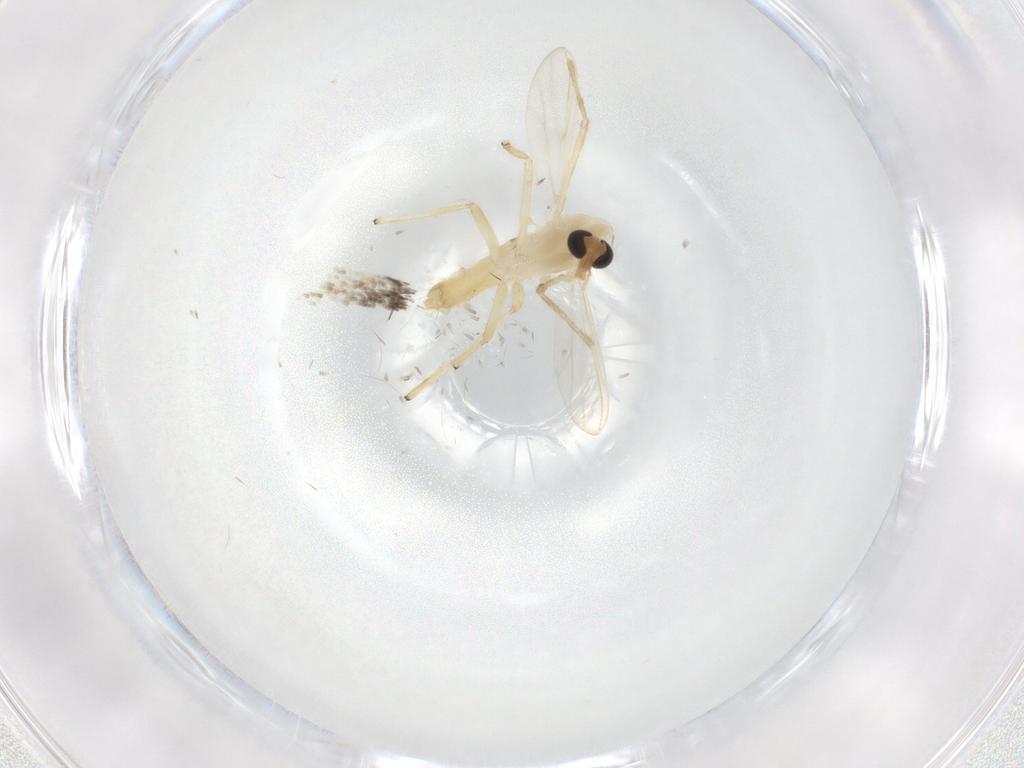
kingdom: Animalia
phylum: Arthropoda
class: Insecta
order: Diptera
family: Chironomidae
